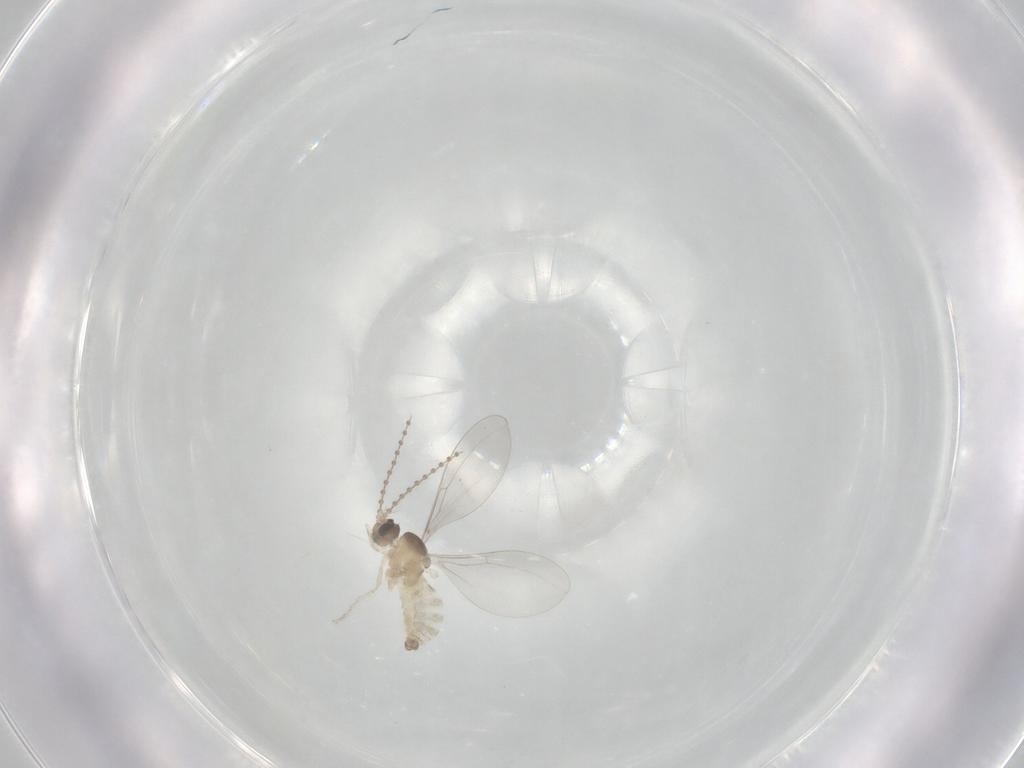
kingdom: Animalia
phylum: Arthropoda
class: Insecta
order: Diptera
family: Cecidomyiidae
